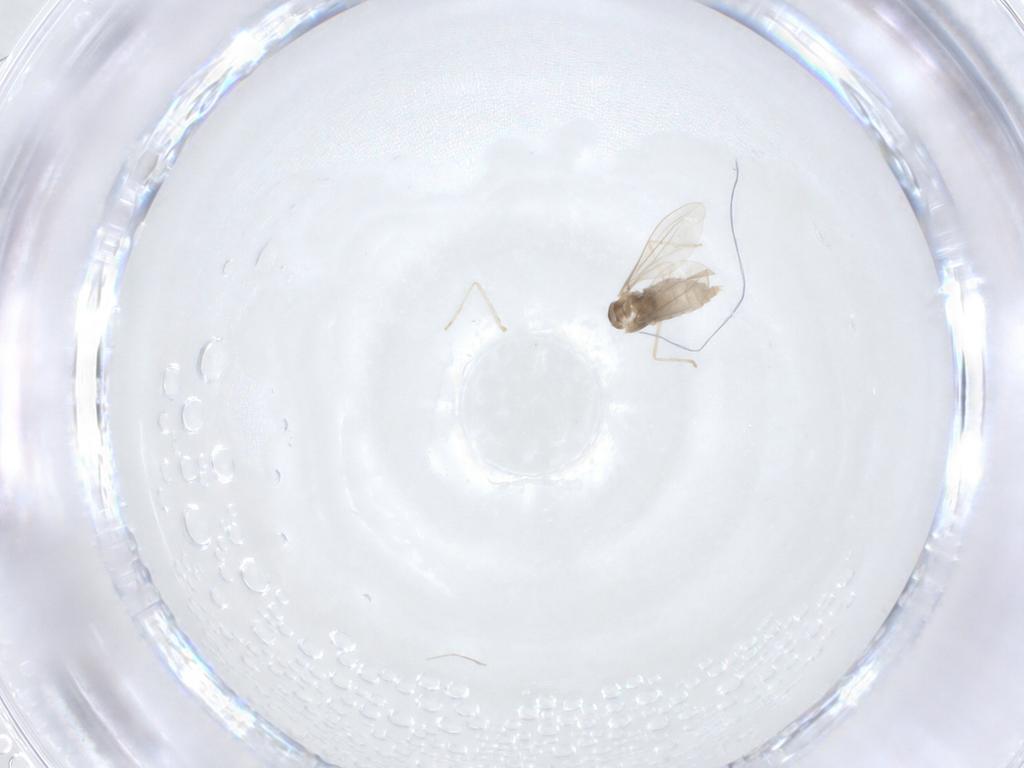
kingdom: Animalia
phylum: Arthropoda
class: Insecta
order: Diptera
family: Cecidomyiidae
